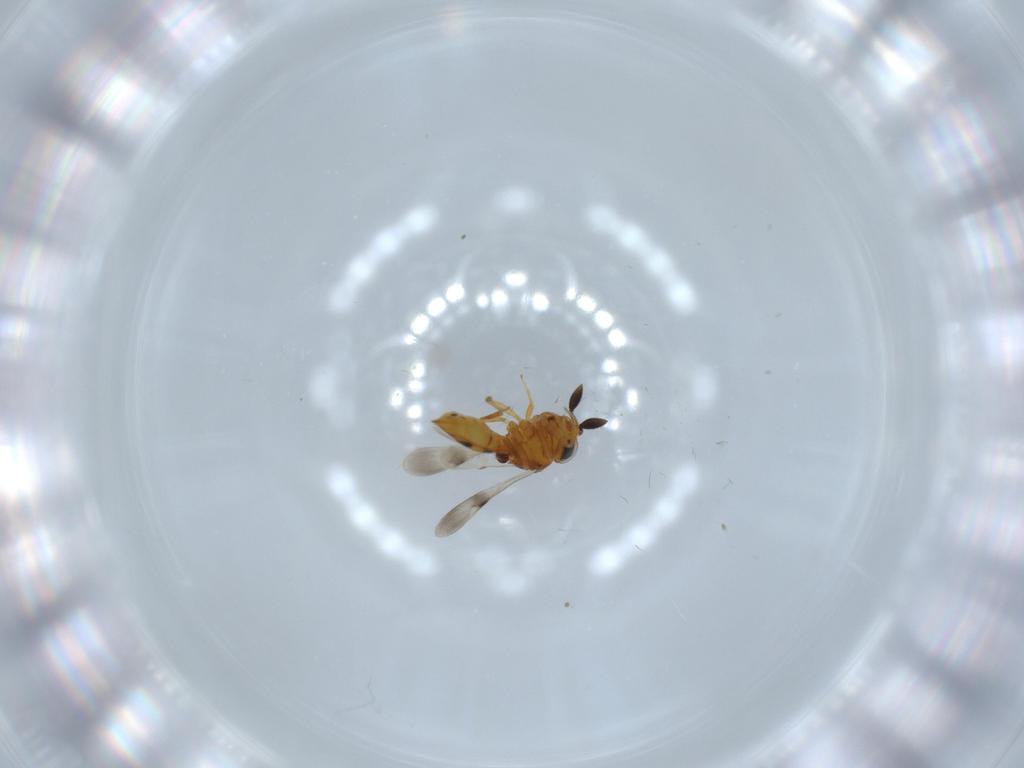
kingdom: Animalia
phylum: Arthropoda
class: Insecta
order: Hymenoptera
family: Scelionidae
